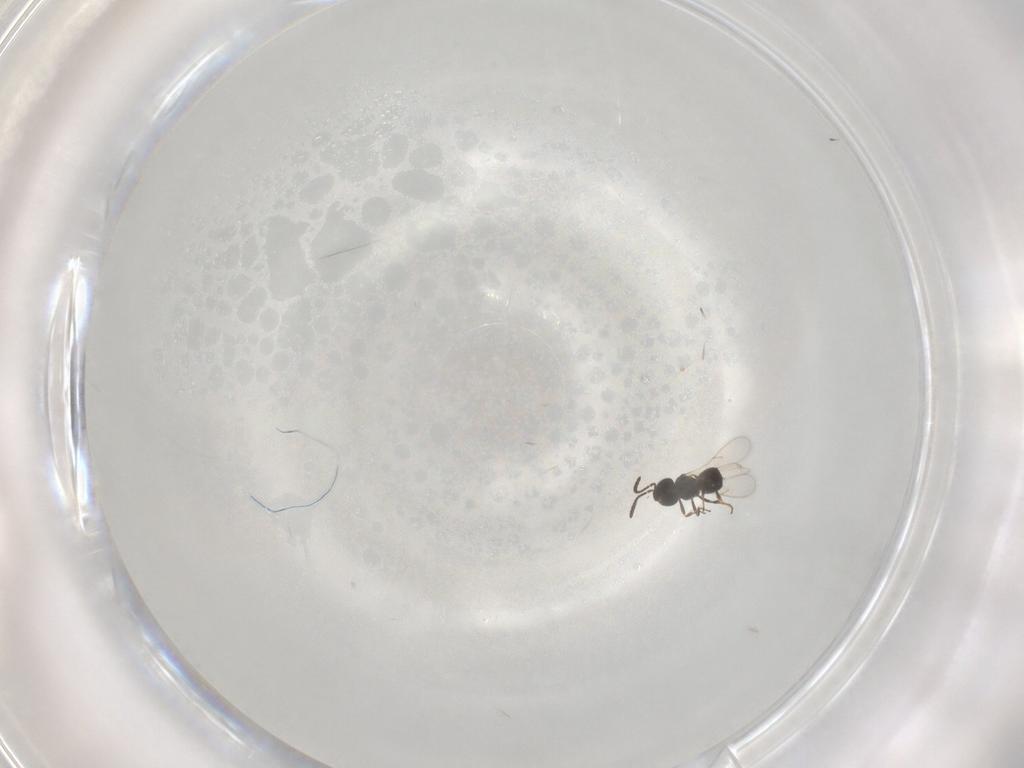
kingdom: Animalia
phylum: Arthropoda
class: Insecta
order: Hymenoptera
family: Scelionidae
